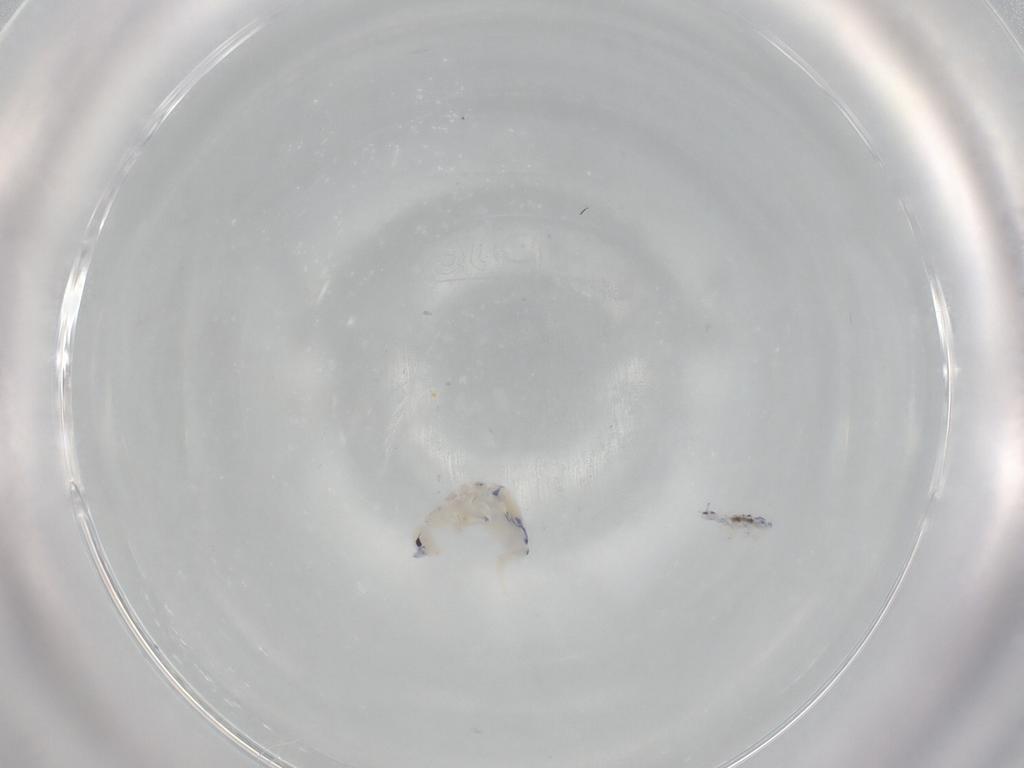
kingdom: Animalia
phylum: Arthropoda
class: Collembola
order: Entomobryomorpha
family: Entomobryidae
